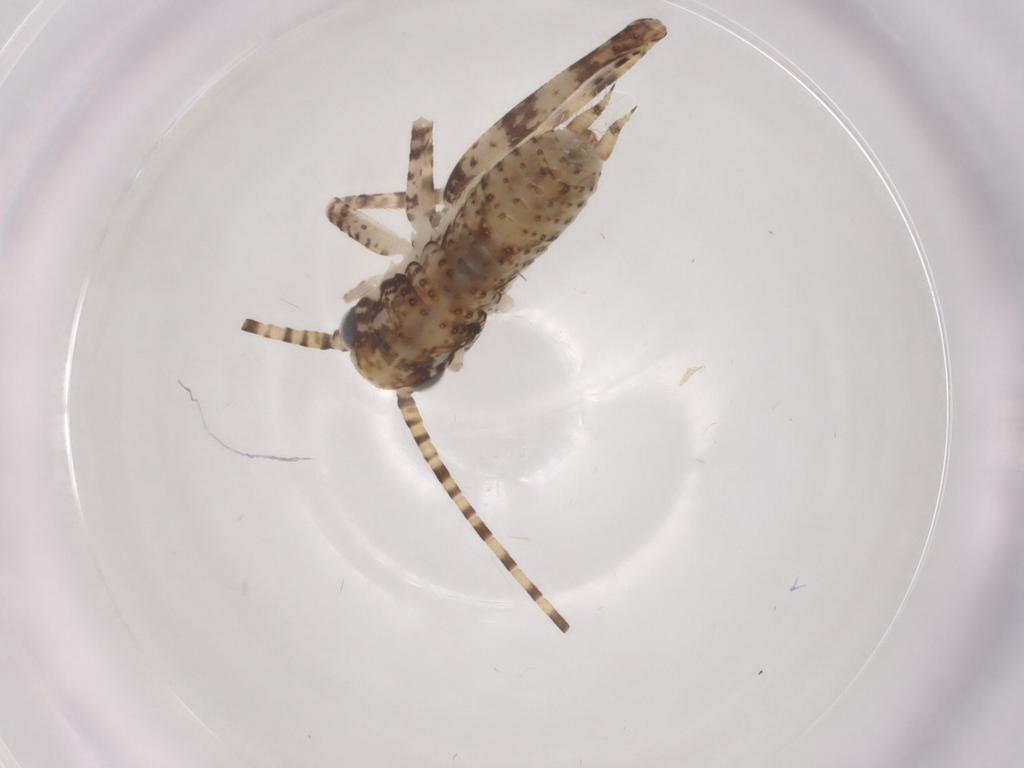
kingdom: Animalia
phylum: Arthropoda
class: Insecta
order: Orthoptera
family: Gryllidae
